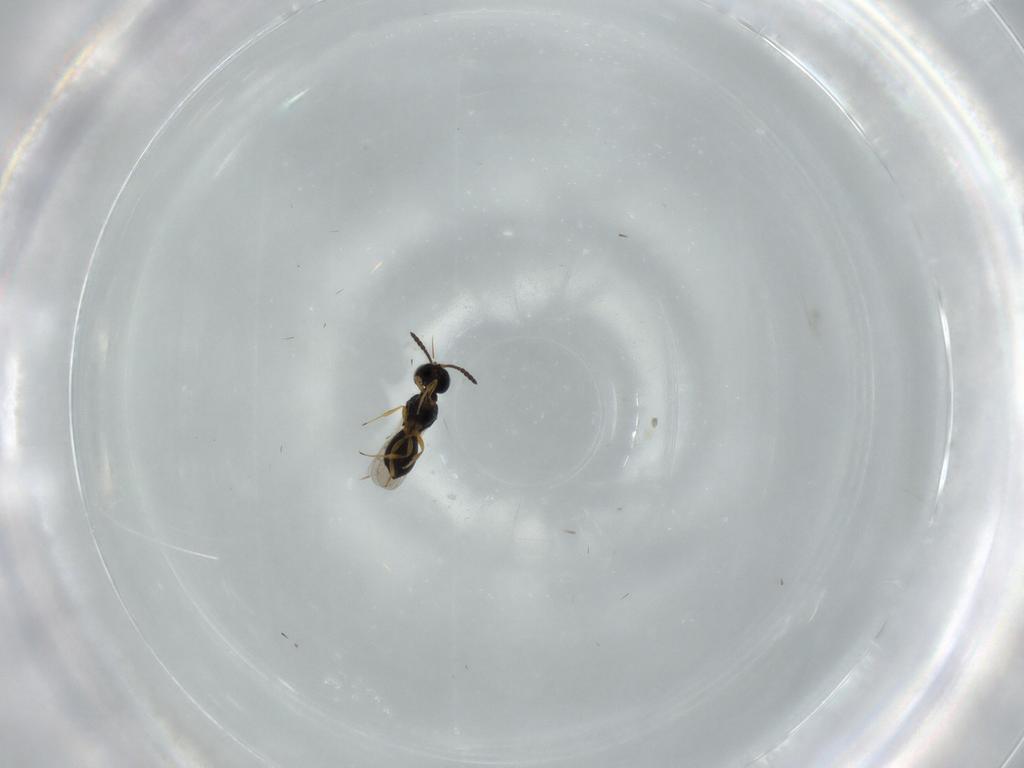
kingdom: Animalia
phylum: Arthropoda
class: Insecta
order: Hymenoptera
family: Scelionidae
